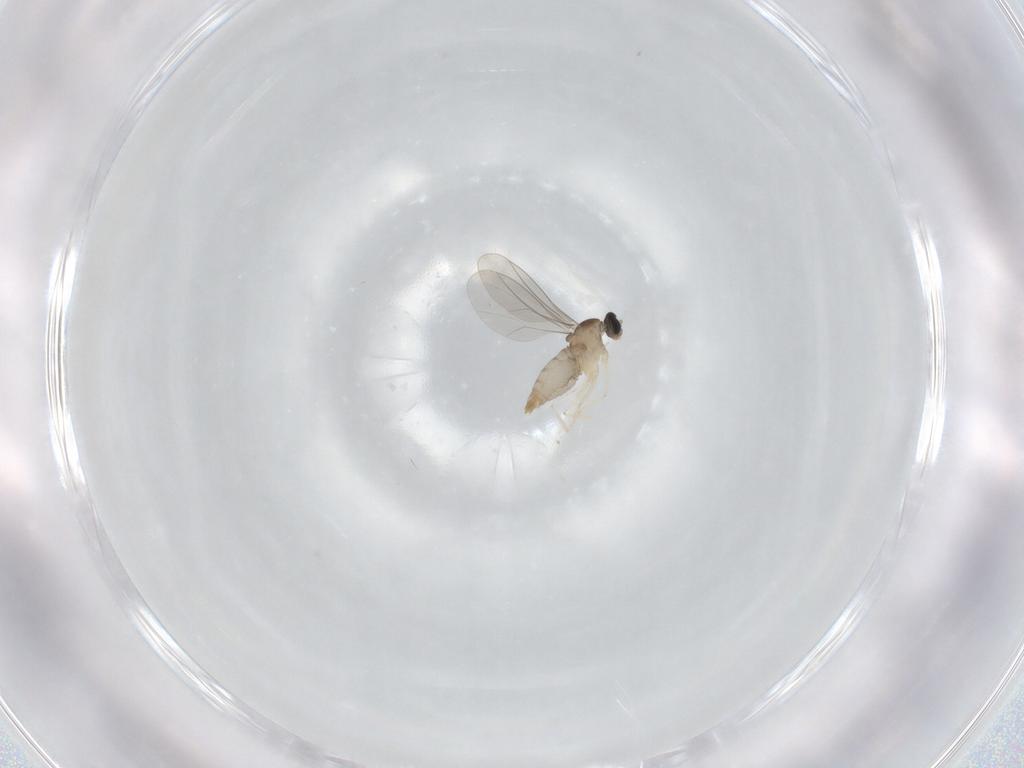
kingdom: Animalia
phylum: Arthropoda
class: Insecta
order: Diptera
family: Cecidomyiidae
